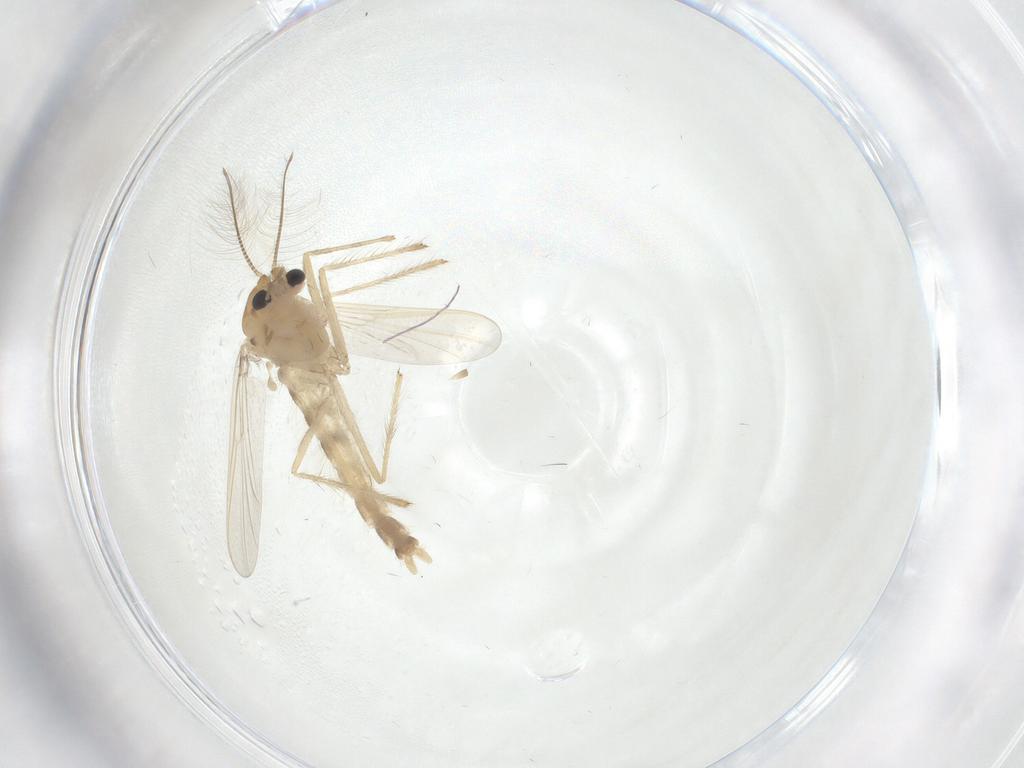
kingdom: Animalia
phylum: Arthropoda
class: Insecta
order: Diptera
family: Chironomidae
